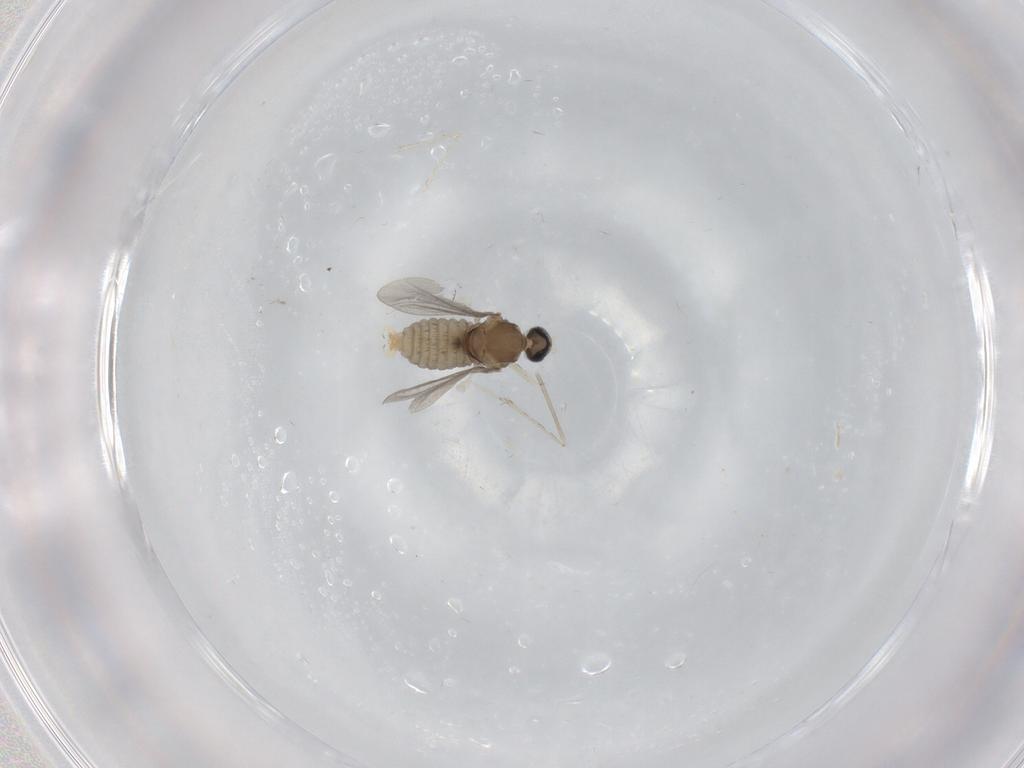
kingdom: Animalia
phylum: Arthropoda
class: Insecta
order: Diptera
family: Cecidomyiidae
